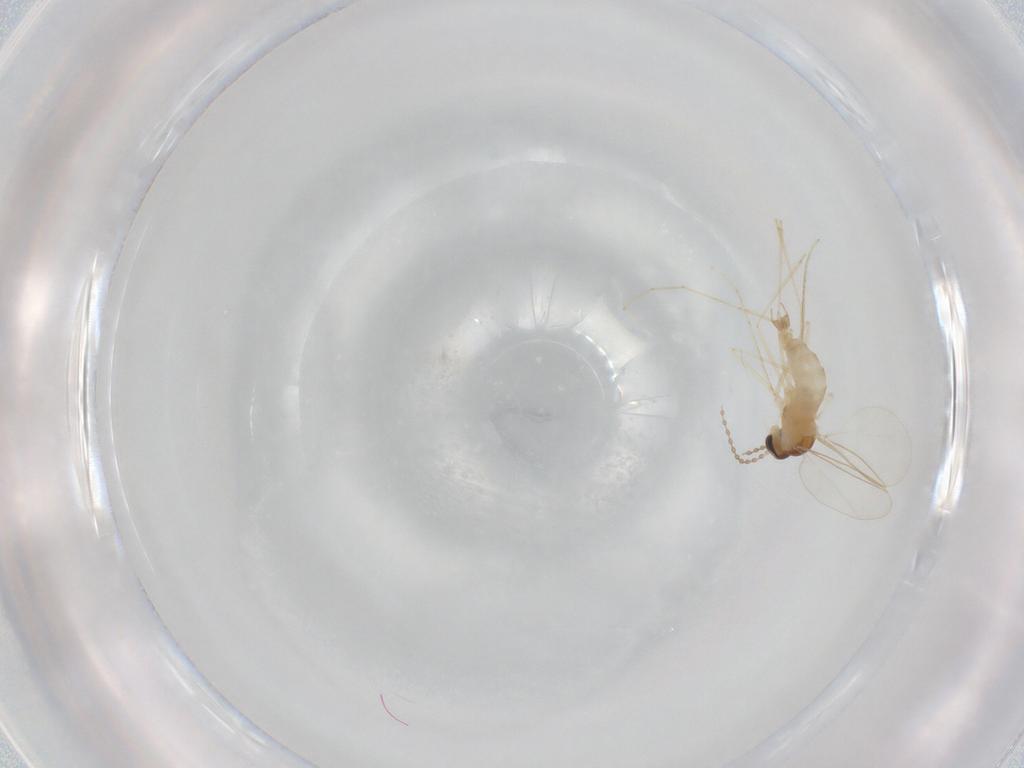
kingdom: Animalia
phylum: Arthropoda
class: Insecta
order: Diptera
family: Cecidomyiidae
